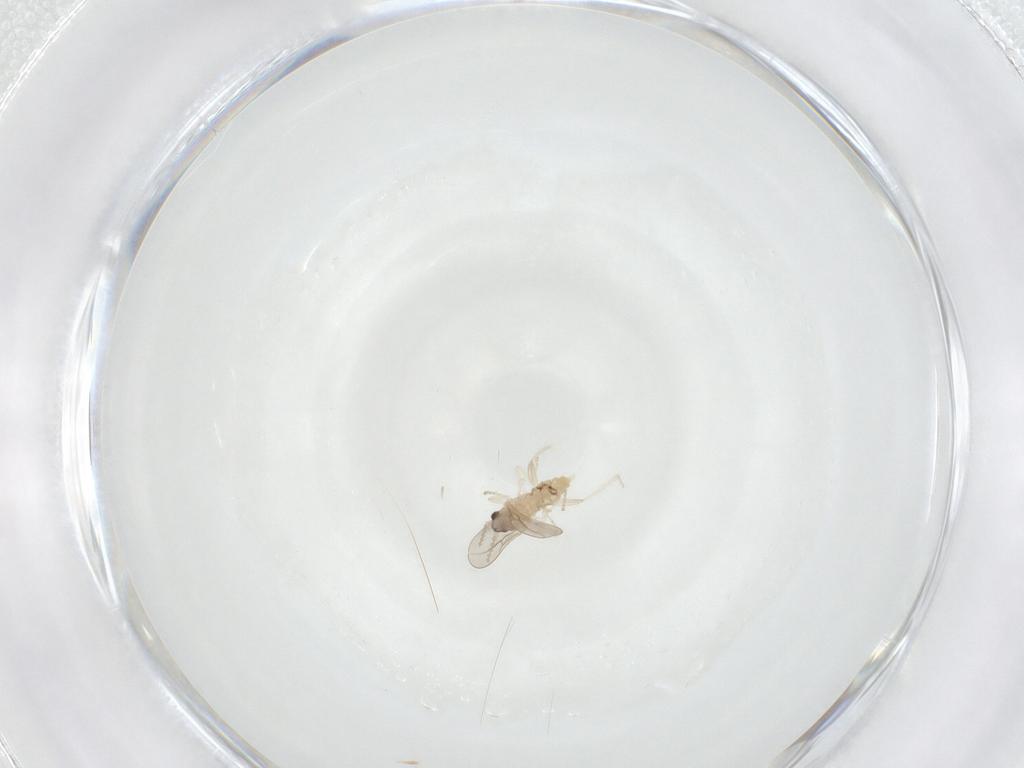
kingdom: Animalia
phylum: Arthropoda
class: Insecta
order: Diptera
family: Cecidomyiidae
